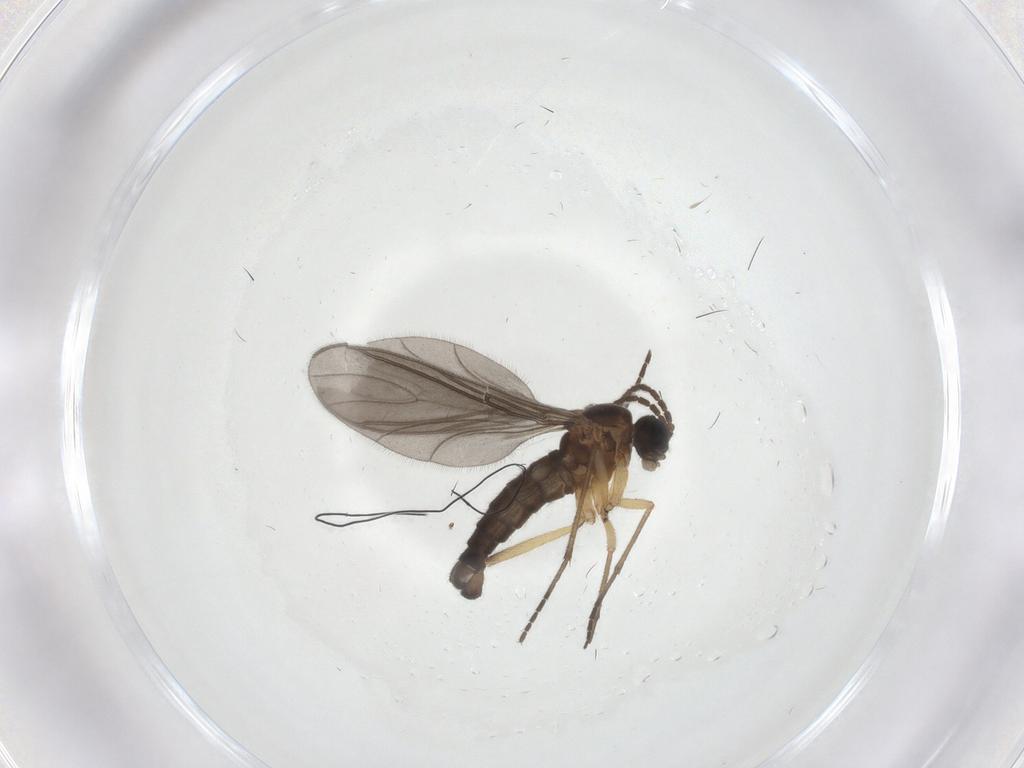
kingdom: Animalia
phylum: Arthropoda
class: Insecta
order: Diptera
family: Sciaridae
